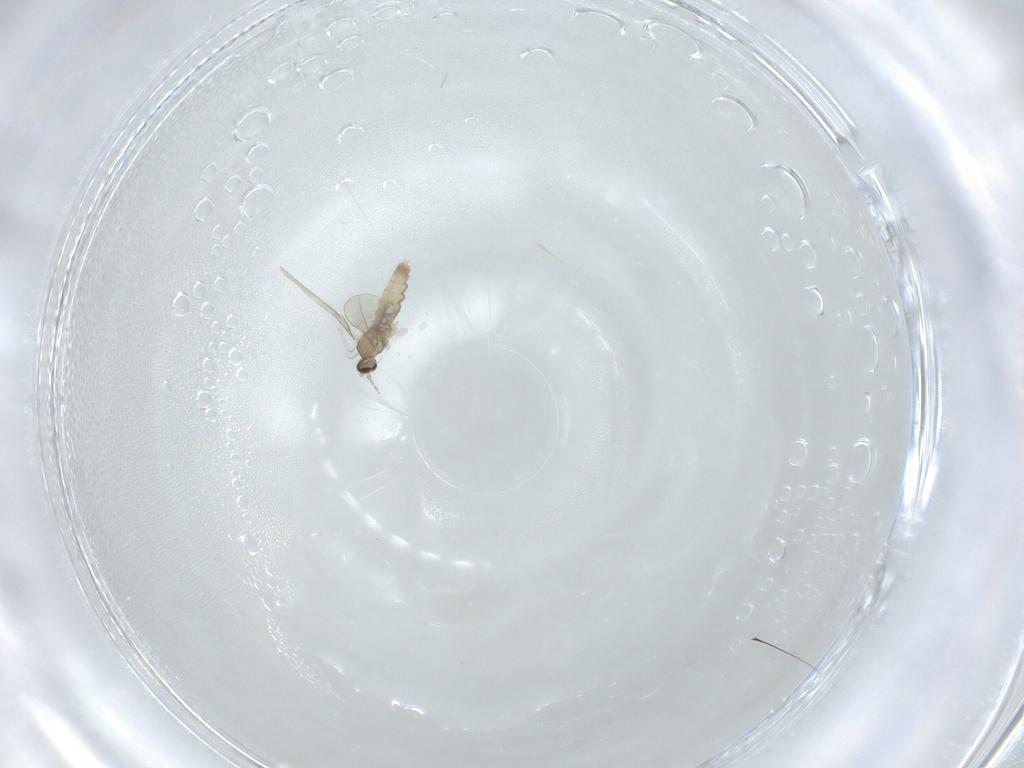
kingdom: Animalia
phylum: Arthropoda
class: Insecta
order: Diptera
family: Cecidomyiidae
